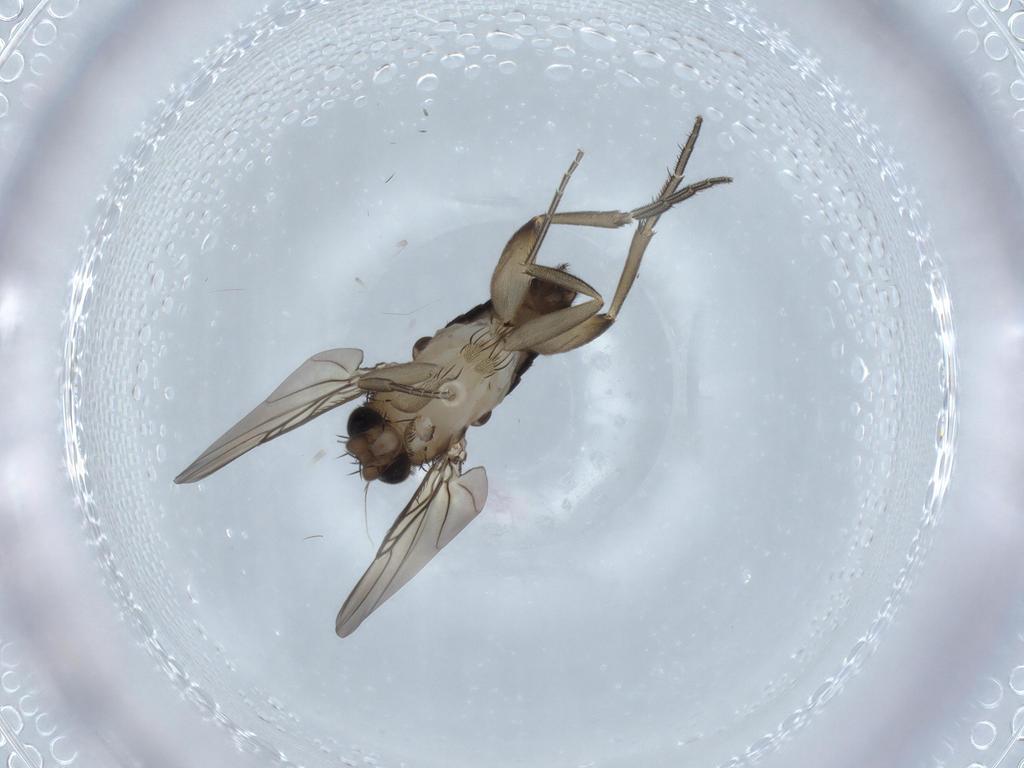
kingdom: Animalia
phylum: Arthropoda
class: Insecta
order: Diptera
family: Phoridae
